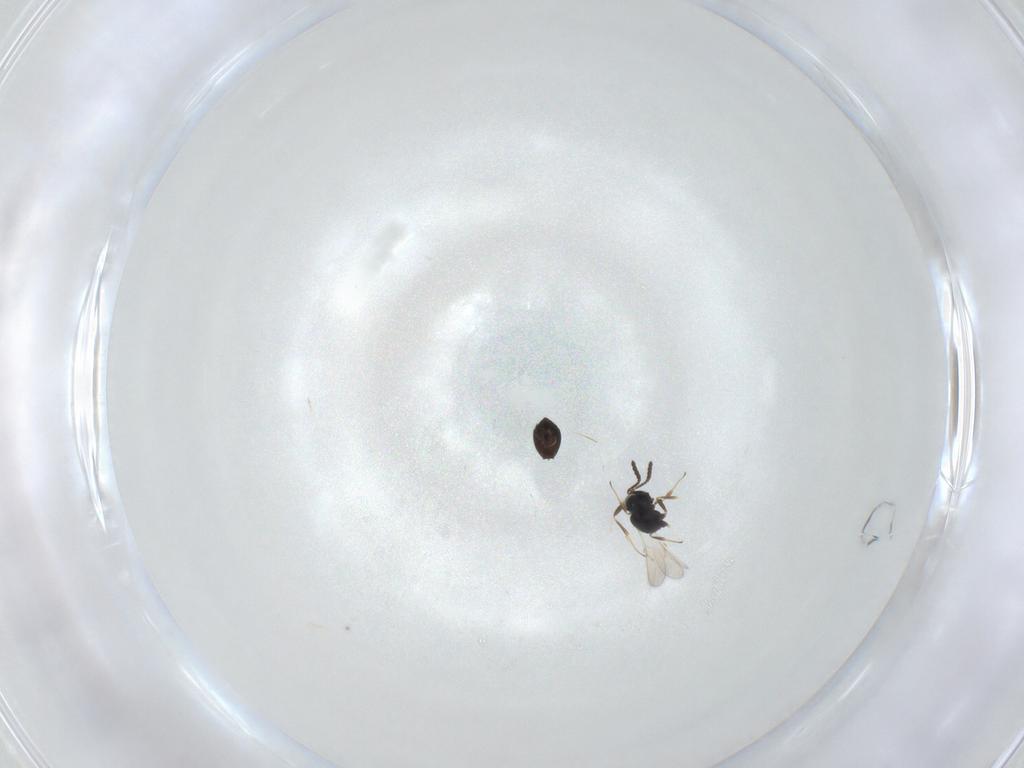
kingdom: Animalia
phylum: Arthropoda
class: Insecta
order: Hymenoptera
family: Scelionidae
